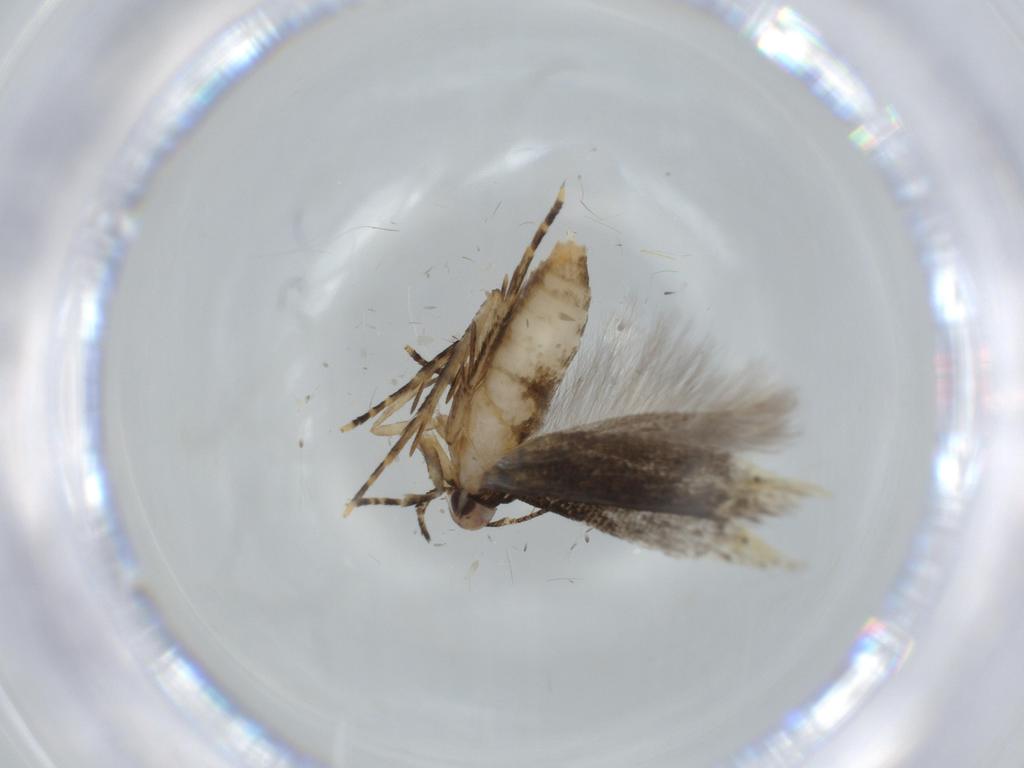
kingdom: Animalia
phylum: Arthropoda
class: Insecta
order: Lepidoptera
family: Stathmopodidae
